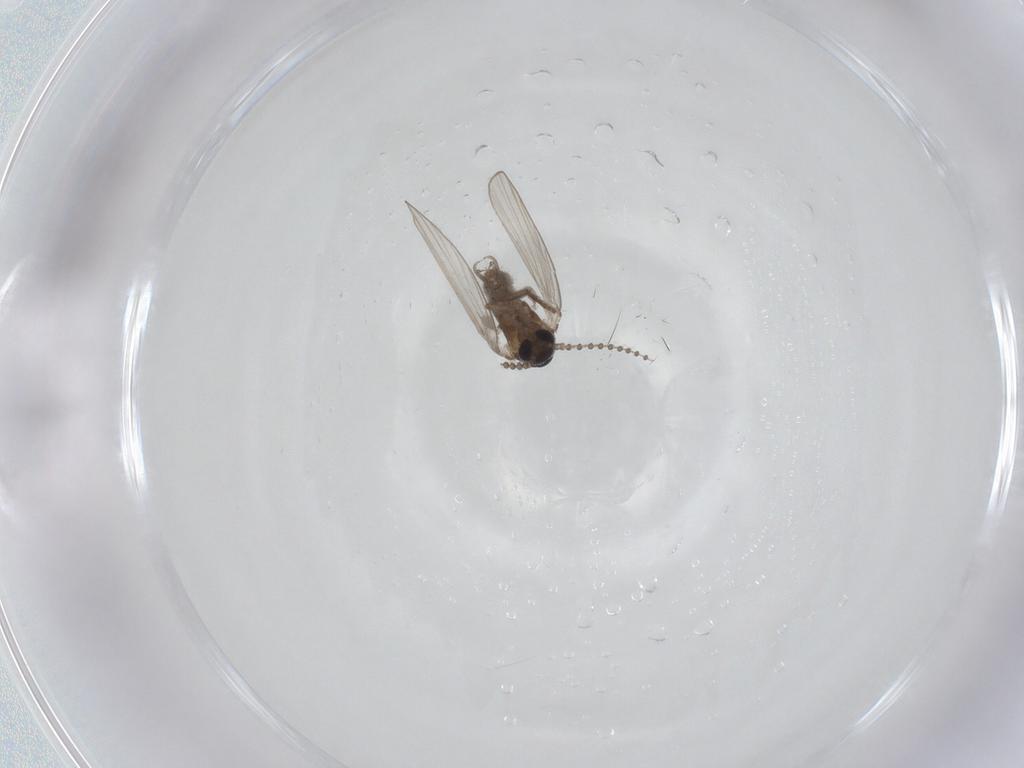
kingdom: Animalia
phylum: Arthropoda
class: Insecta
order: Diptera
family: Psychodidae
